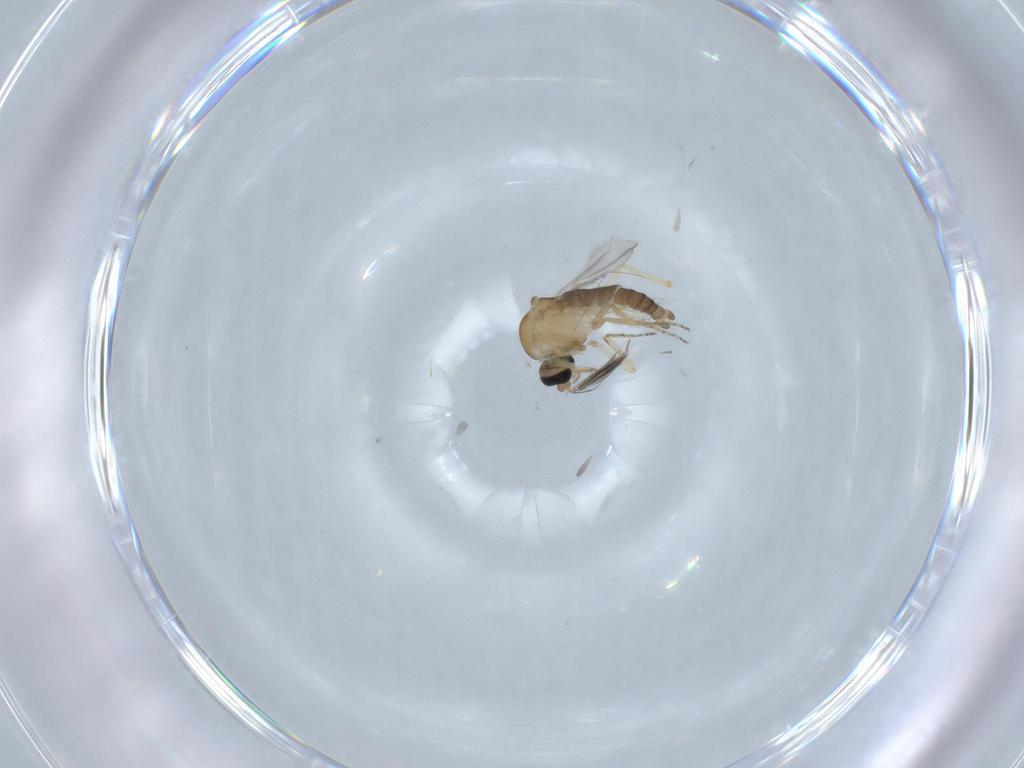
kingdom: Animalia
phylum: Arthropoda
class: Insecta
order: Diptera
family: Ceratopogonidae
